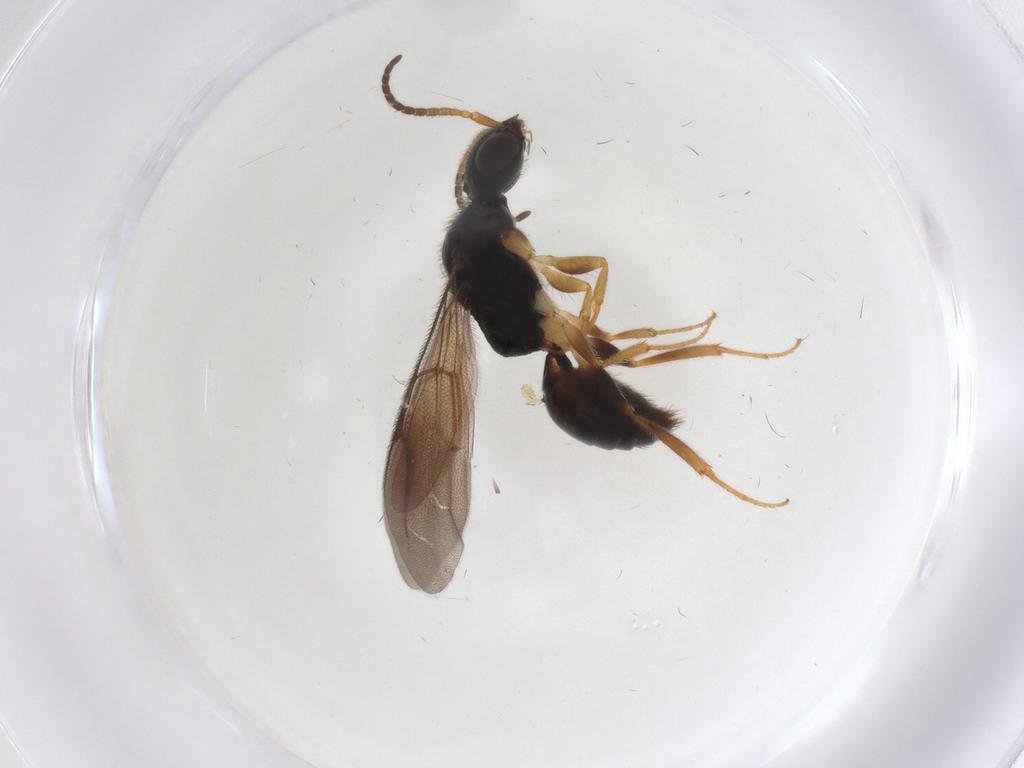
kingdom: Animalia
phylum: Arthropoda
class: Insecta
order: Hymenoptera
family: Bethylidae
